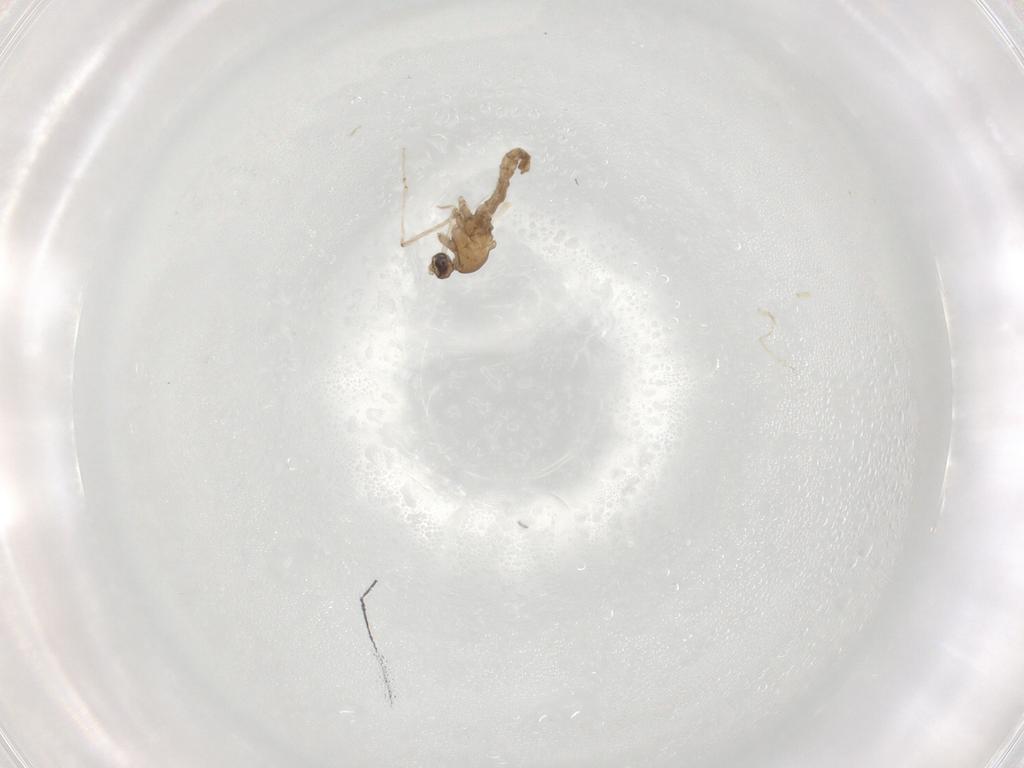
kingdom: Animalia
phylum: Arthropoda
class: Insecta
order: Diptera
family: Cecidomyiidae
